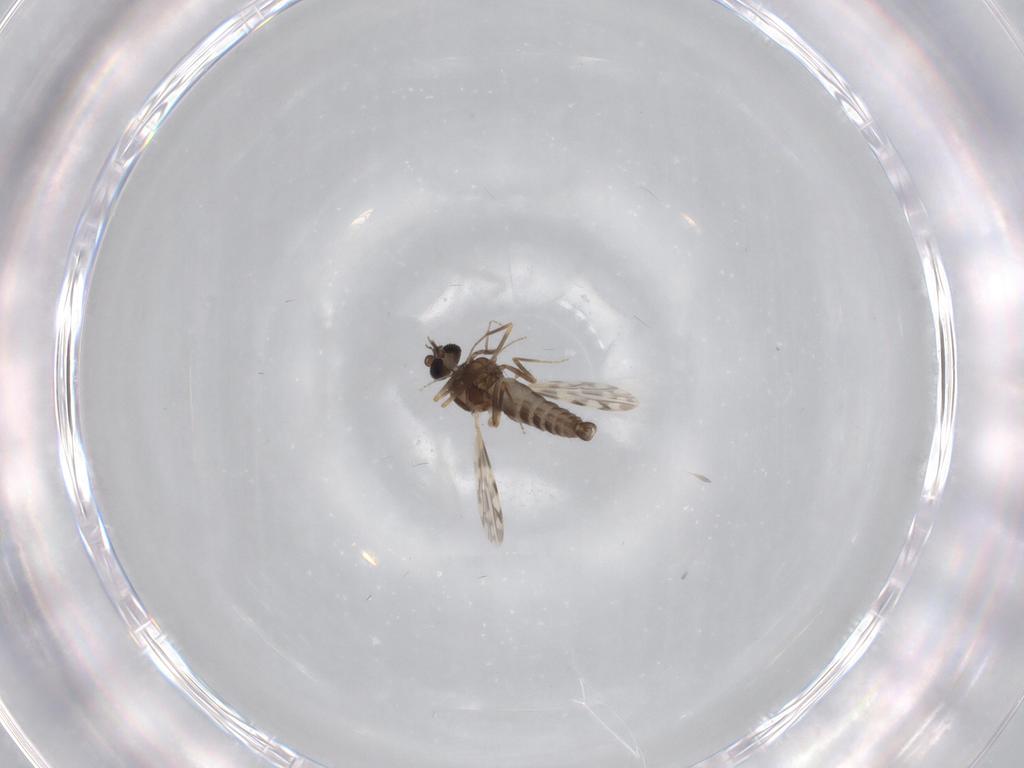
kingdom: Animalia
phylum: Arthropoda
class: Insecta
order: Diptera
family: Ceratopogonidae
